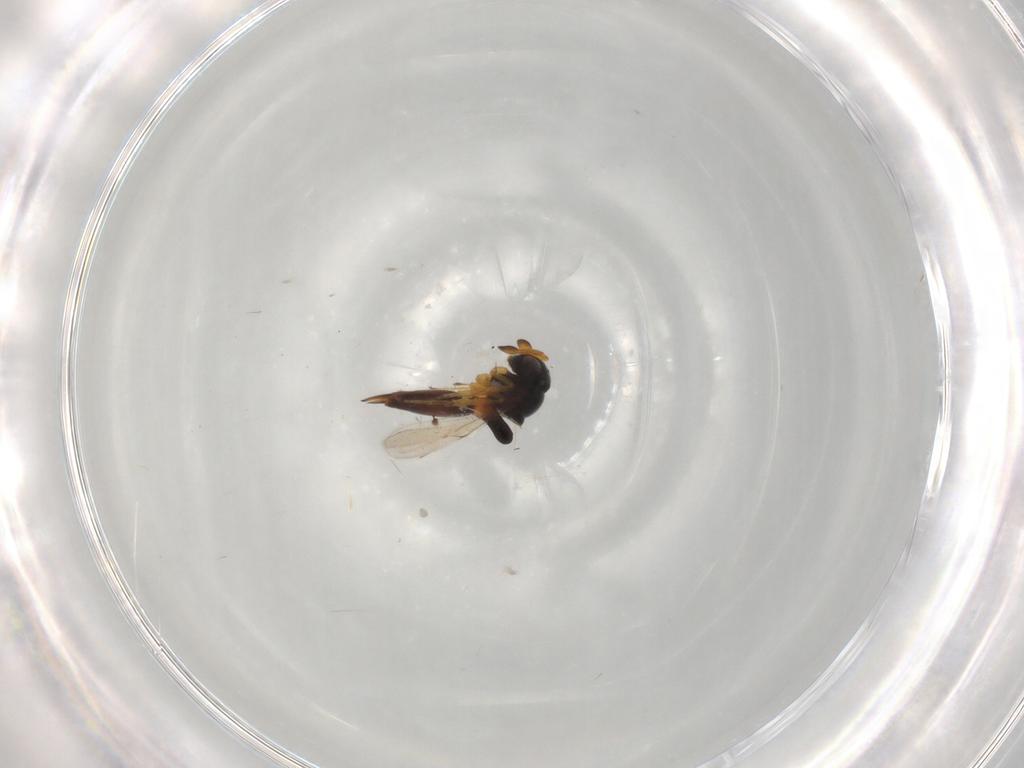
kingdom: Animalia
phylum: Arthropoda
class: Insecta
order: Hymenoptera
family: Scelionidae
